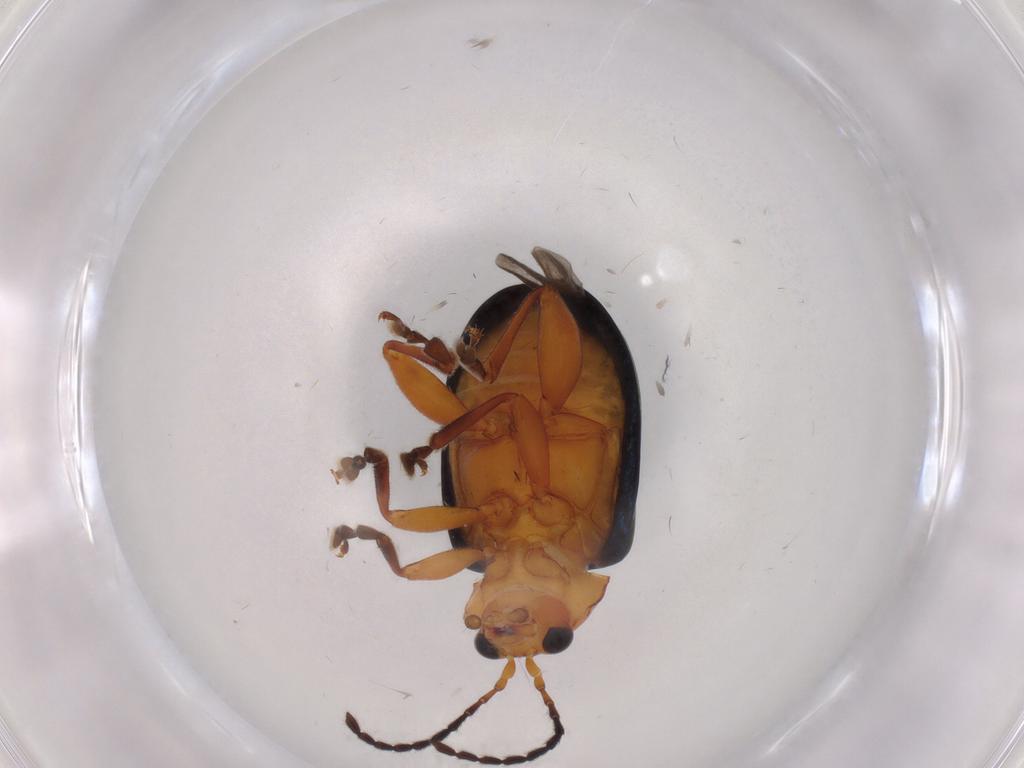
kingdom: Animalia
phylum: Arthropoda
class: Insecta
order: Coleoptera
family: Chrysomelidae
